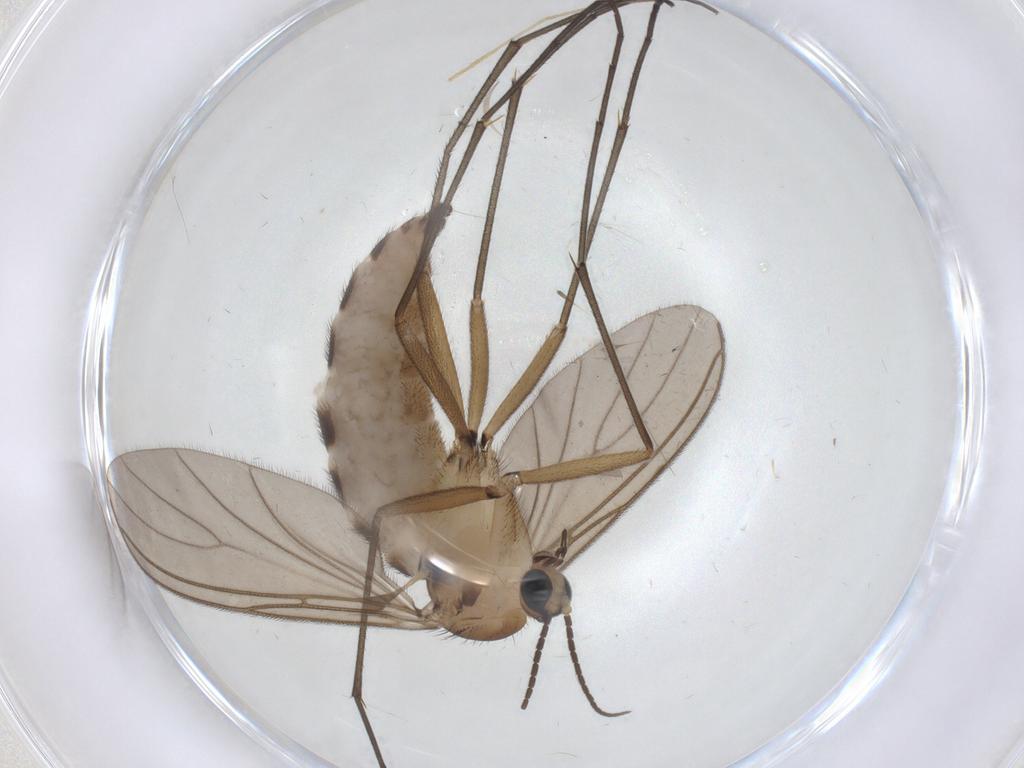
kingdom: Animalia
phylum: Arthropoda
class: Insecta
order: Diptera
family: Sciaridae
